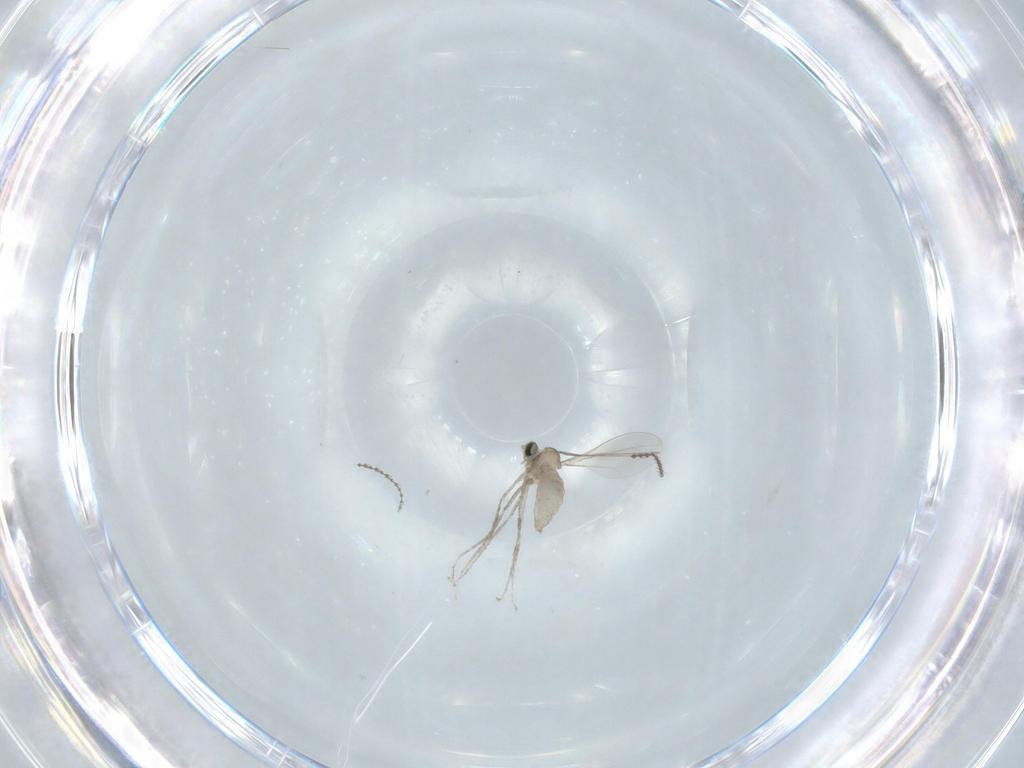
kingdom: Animalia
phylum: Arthropoda
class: Insecta
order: Diptera
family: Cecidomyiidae
